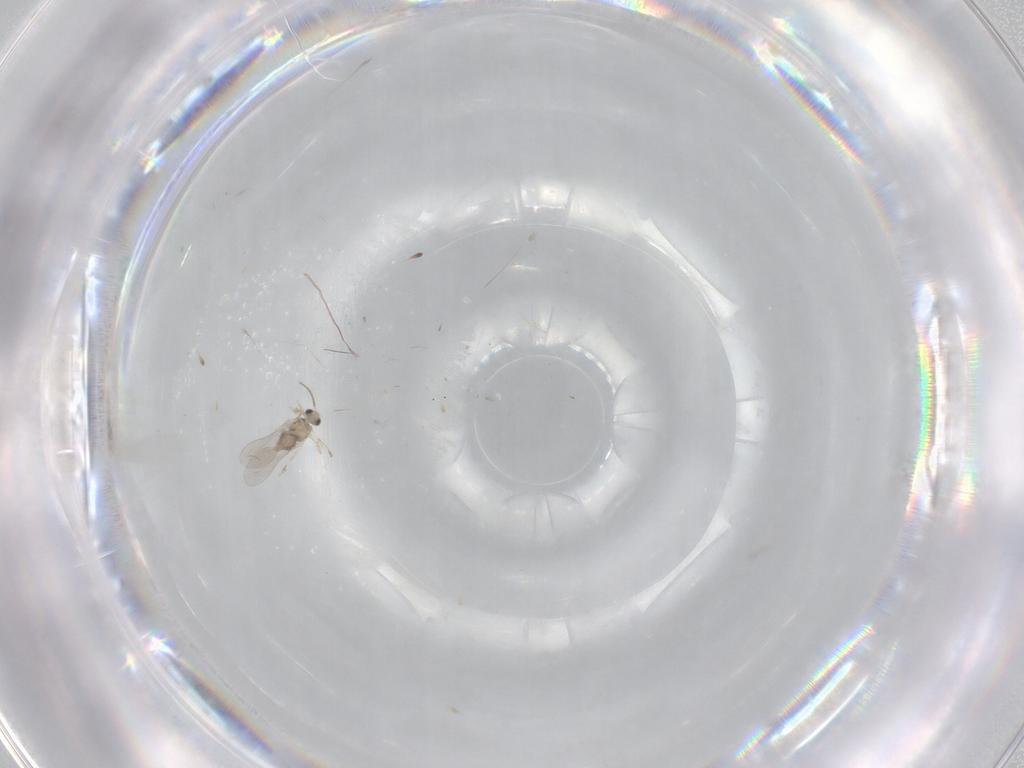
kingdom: Animalia
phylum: Arthropoda
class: Insecta
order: Diptera
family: Cecidomyiidae
